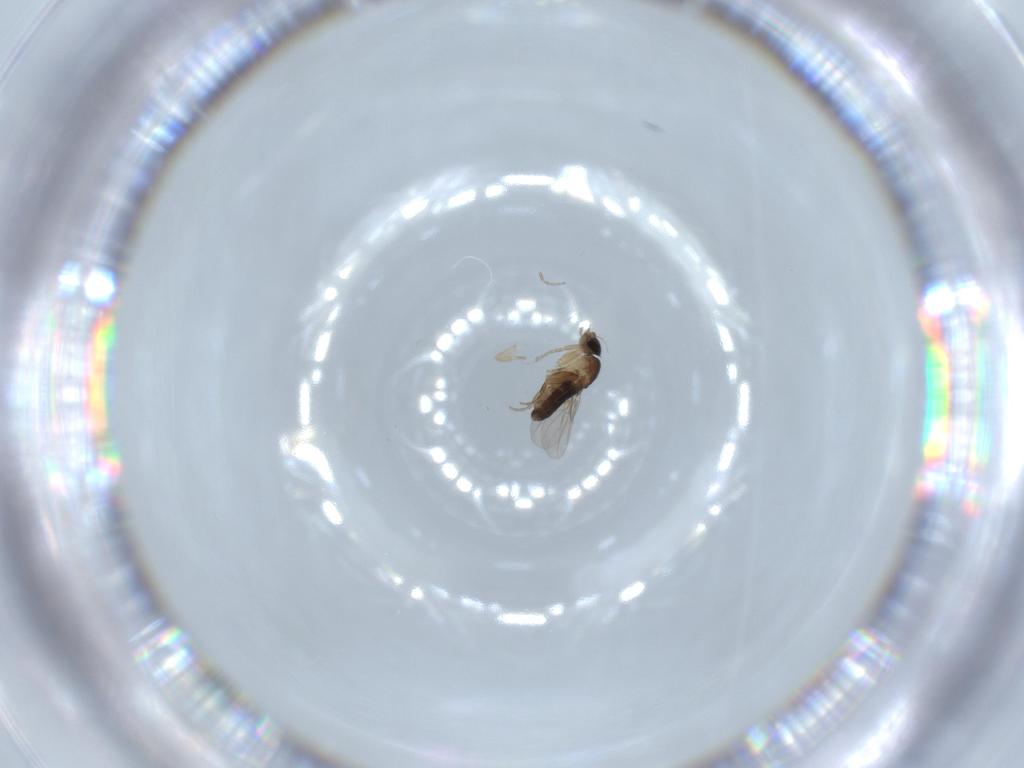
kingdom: Animalia
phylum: Arthropoda
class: Insecta
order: Diptera
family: Phoridae
